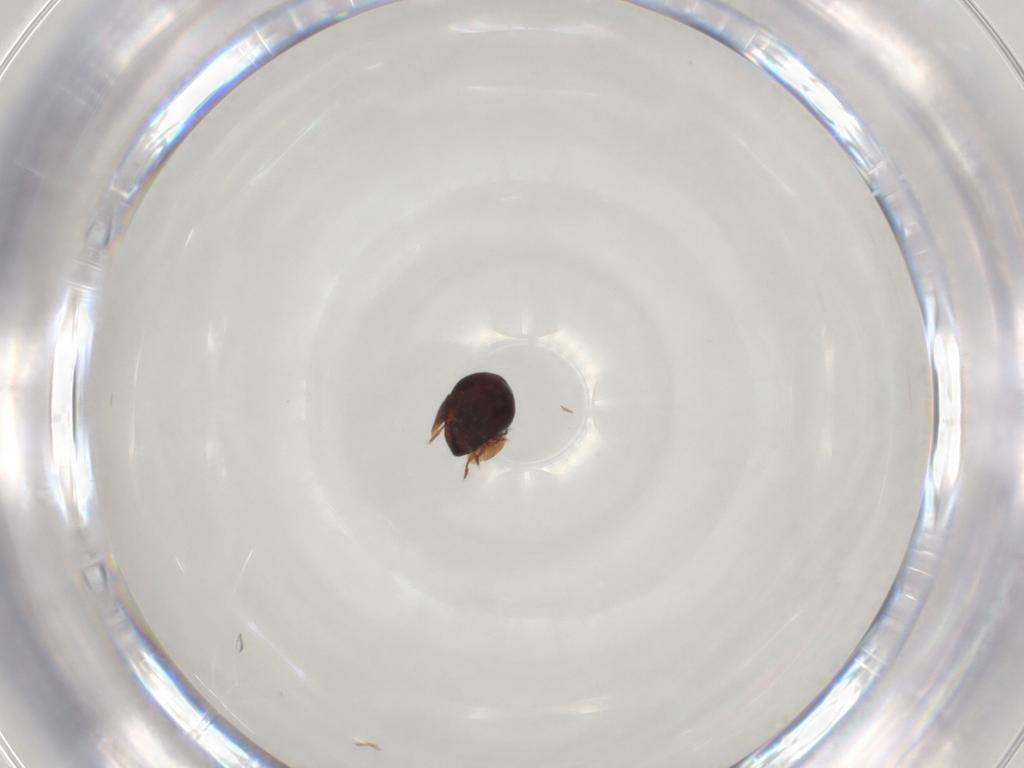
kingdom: Animalia
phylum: Arthropoda
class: Arachnida
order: Sarcoptiformes
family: Galumnidae
